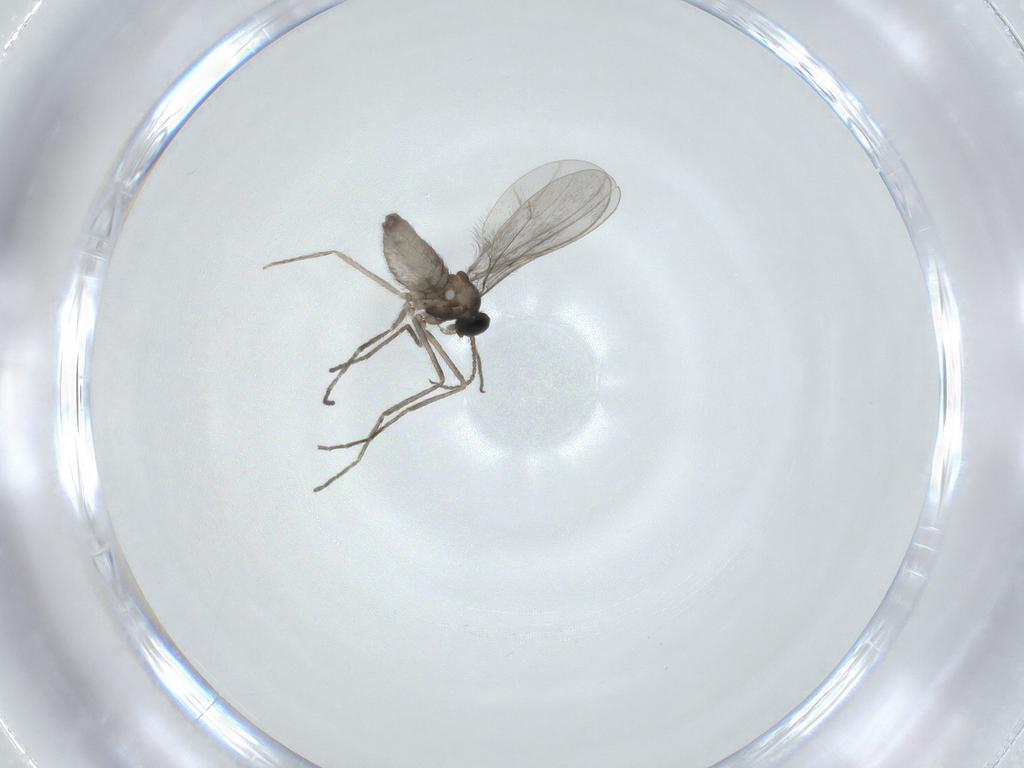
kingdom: Animalia
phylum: Arthropoda
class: Insecta
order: Diptera
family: Cecidomyiidae
